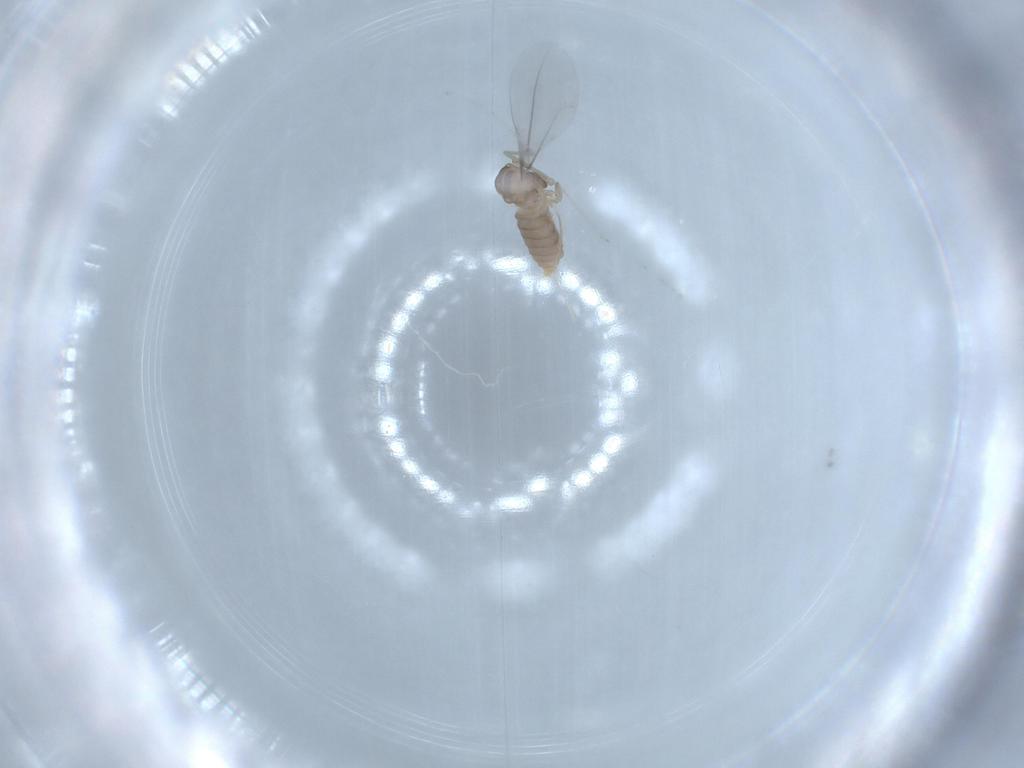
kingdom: Animalia
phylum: Arthropoda
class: Insecta
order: Diptera
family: Cecidomyiidae
